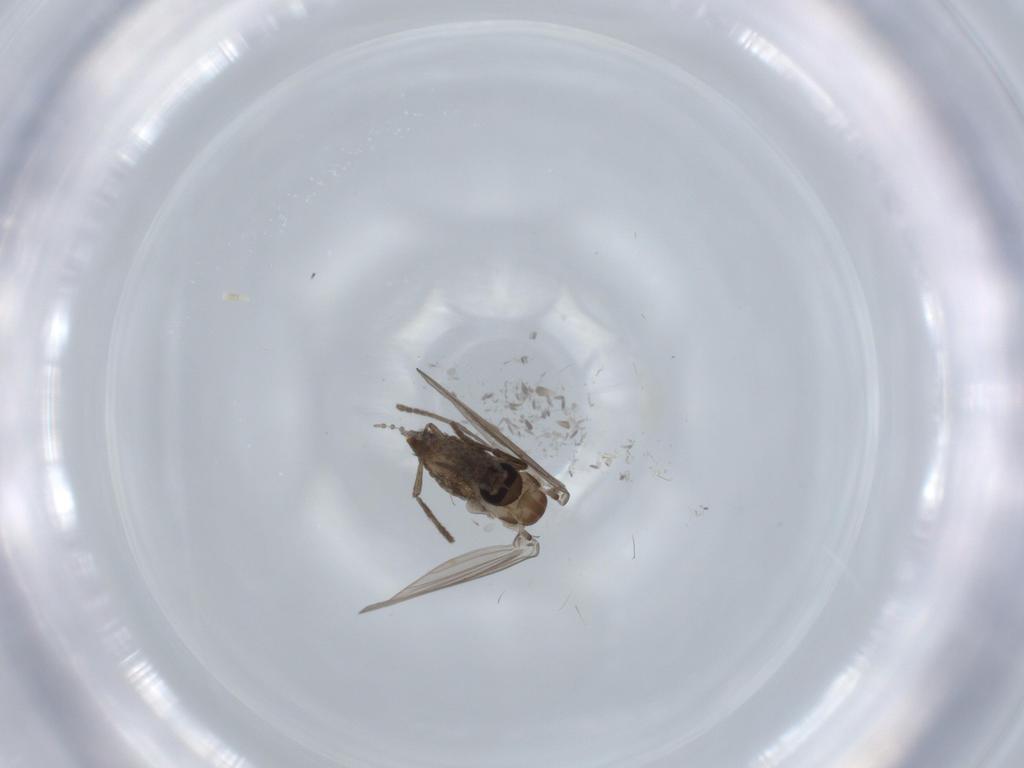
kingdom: Animalia
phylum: Arthropoda
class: Insecta
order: Diptera
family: Psychodidae
